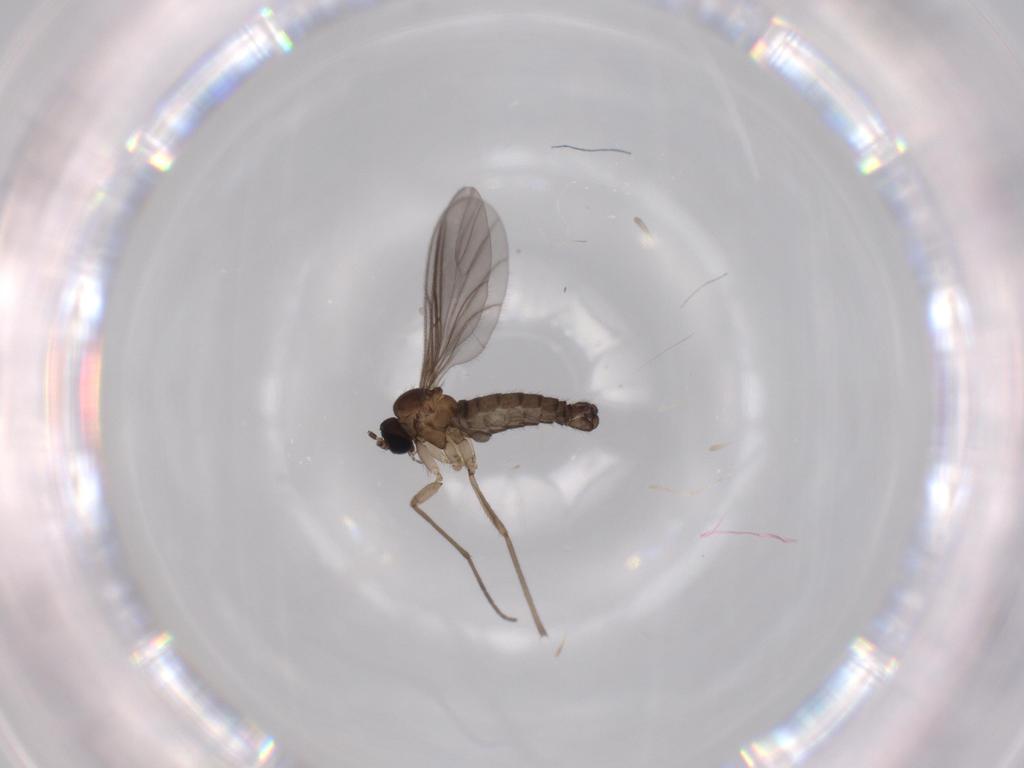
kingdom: Animalia
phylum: Arthropoda
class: Insecta
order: Diptera
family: Sciaridae
